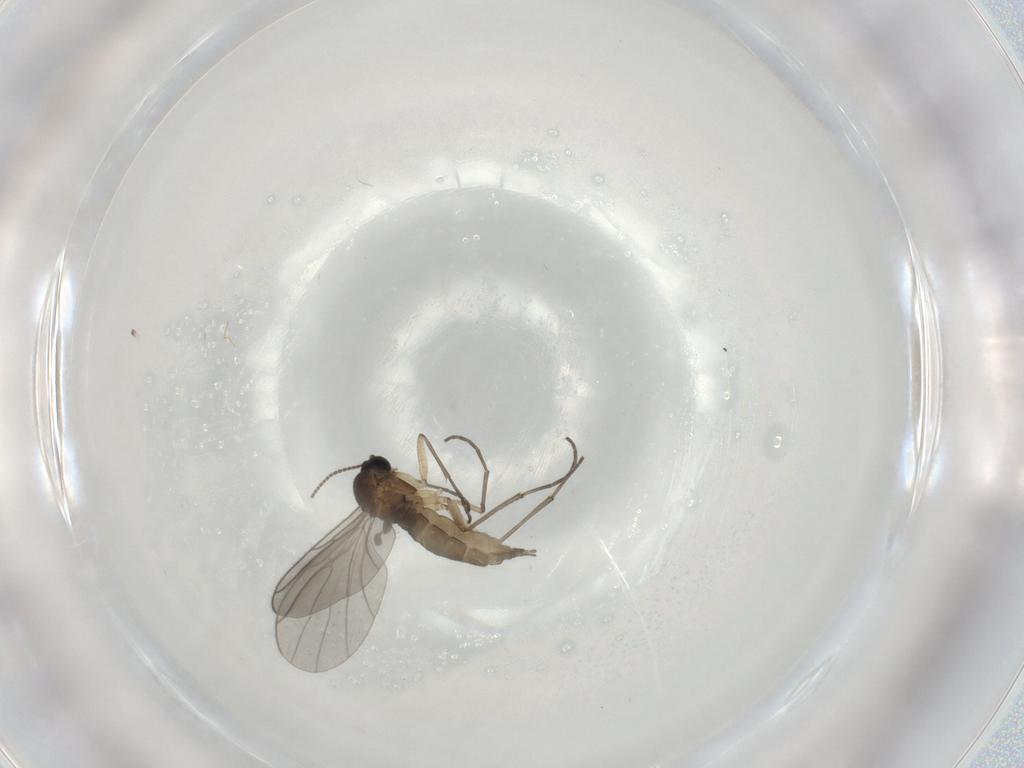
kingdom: Animalia
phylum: Arthropoda
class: Insecta
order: Diptera
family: Sciaridae
